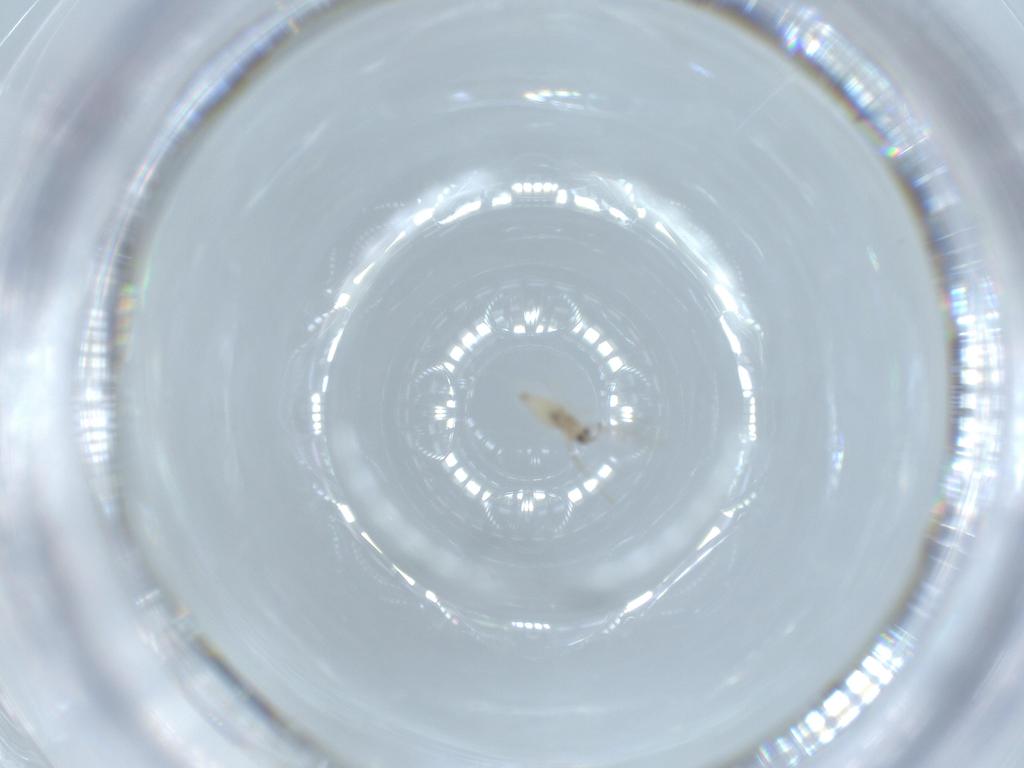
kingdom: Animalia
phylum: Arthropoda
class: Insecta
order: Diptera
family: Cecidomyiidae
